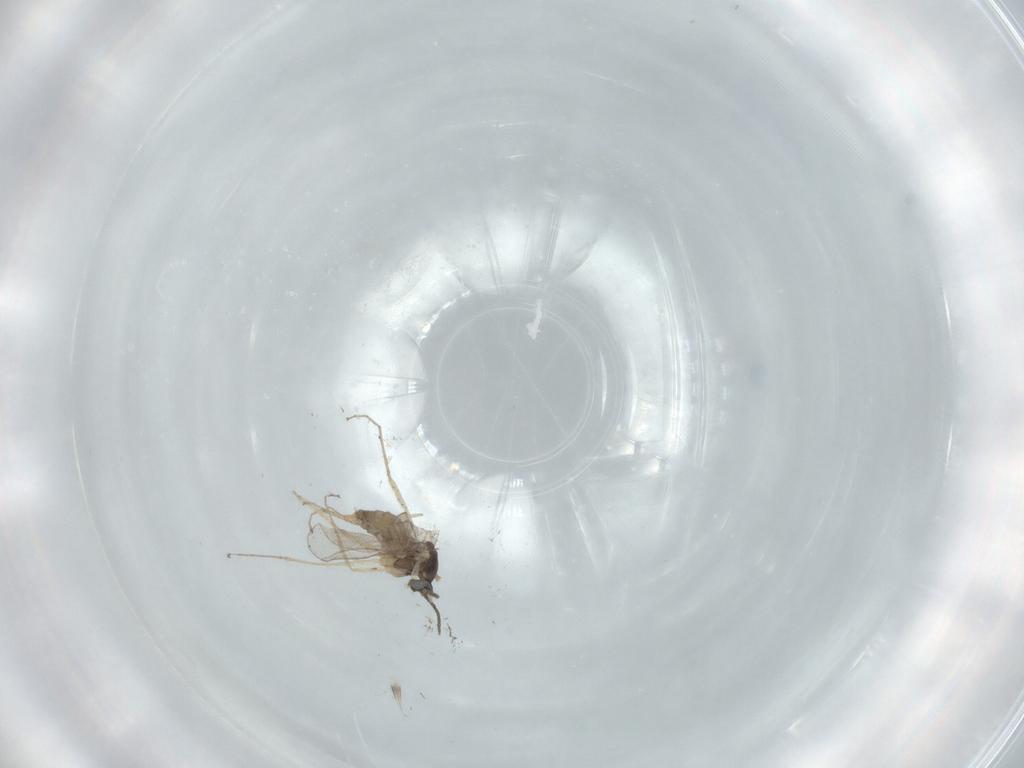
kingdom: Animalia
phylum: Arthropoda
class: Insecta
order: Diptera
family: Cecidomyiidae
